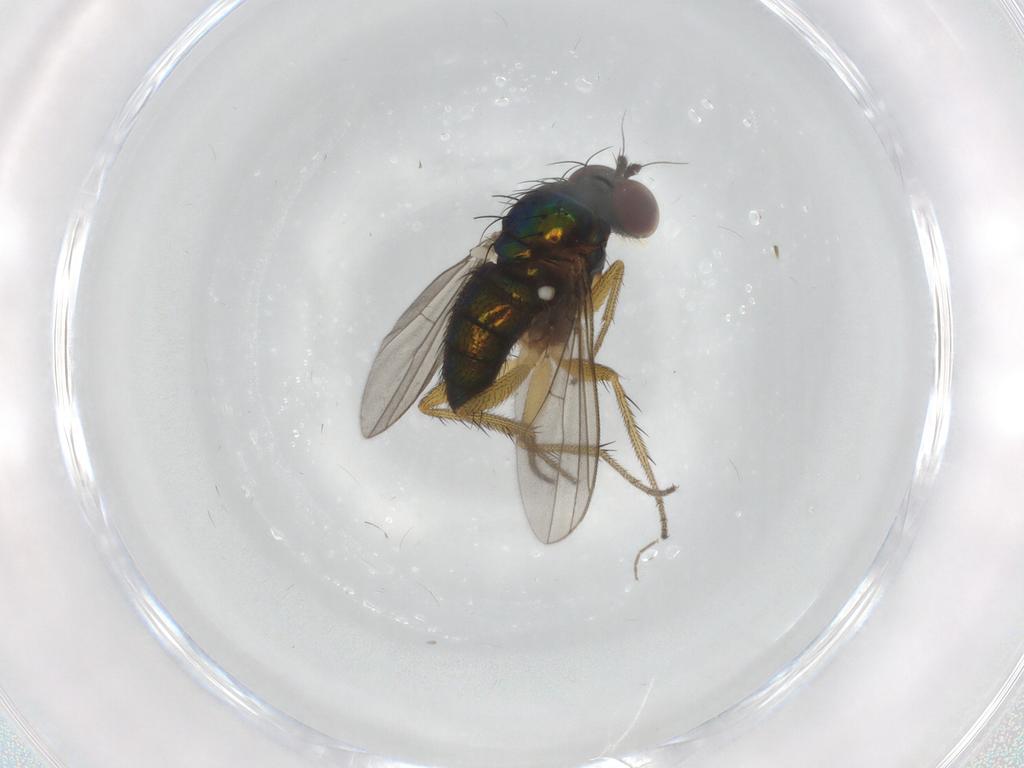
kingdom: Animalia
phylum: Arthropoda
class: Insecta
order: Diptera
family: Dolichopodidae
